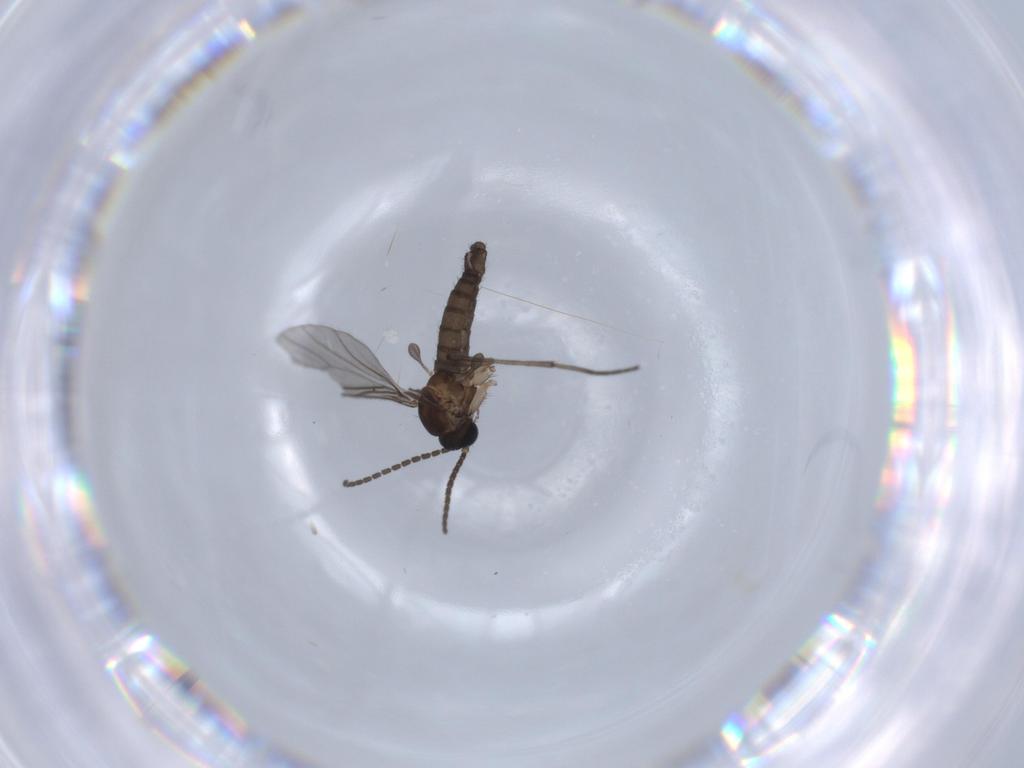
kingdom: Animalia
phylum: Arthropoda
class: Insecta
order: Diptera
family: Sciaridae
